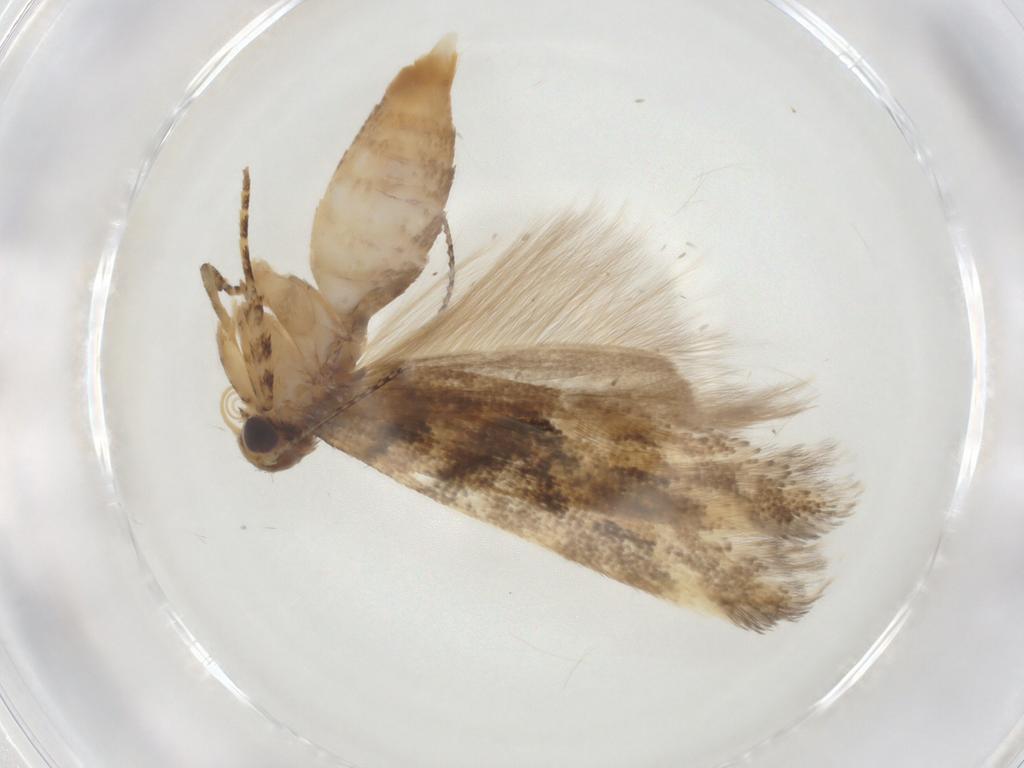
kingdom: Animalia
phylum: Arthropoda
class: Insecta
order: Lepidoptera
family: Gelechiidae
